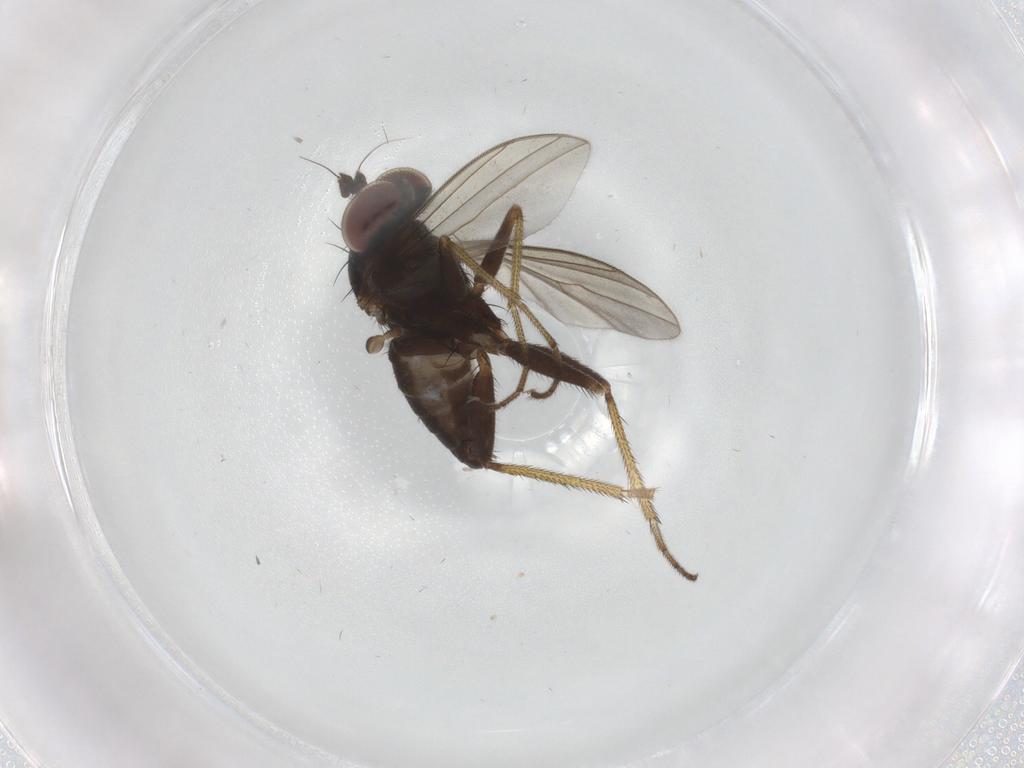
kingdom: Animalia
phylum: Arthropoda
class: Insecta
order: Diptera
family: Dolichopodidae
